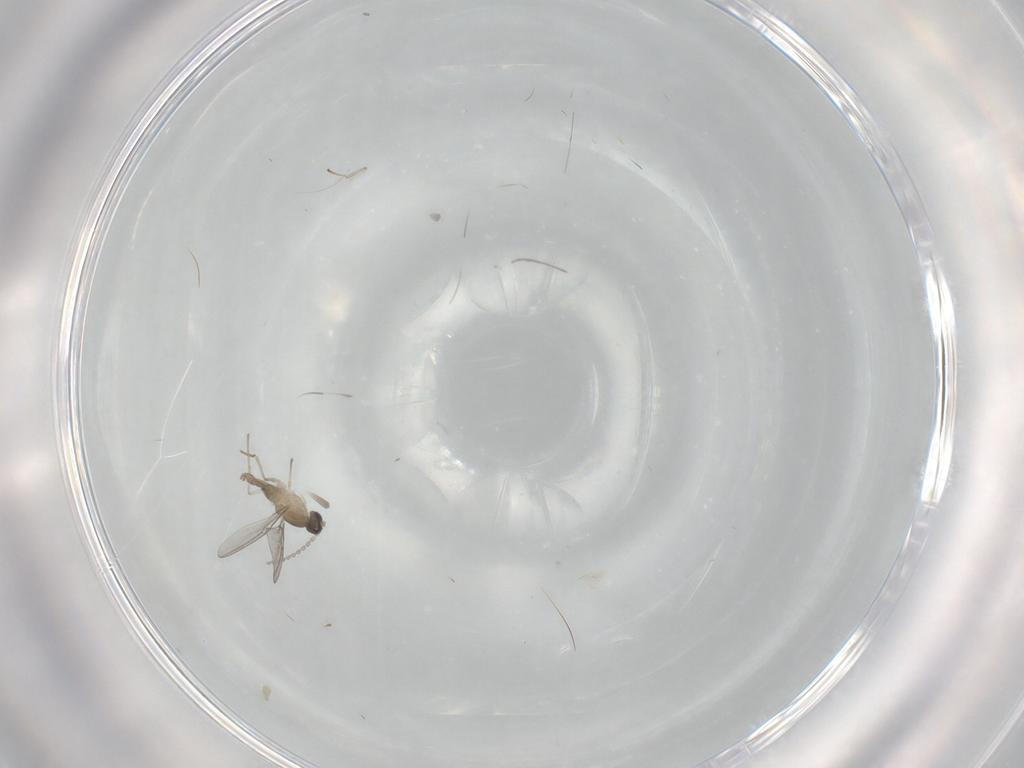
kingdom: Animalia
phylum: Arthropoda
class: Insecta
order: Diptera
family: Cecidomyiidae
